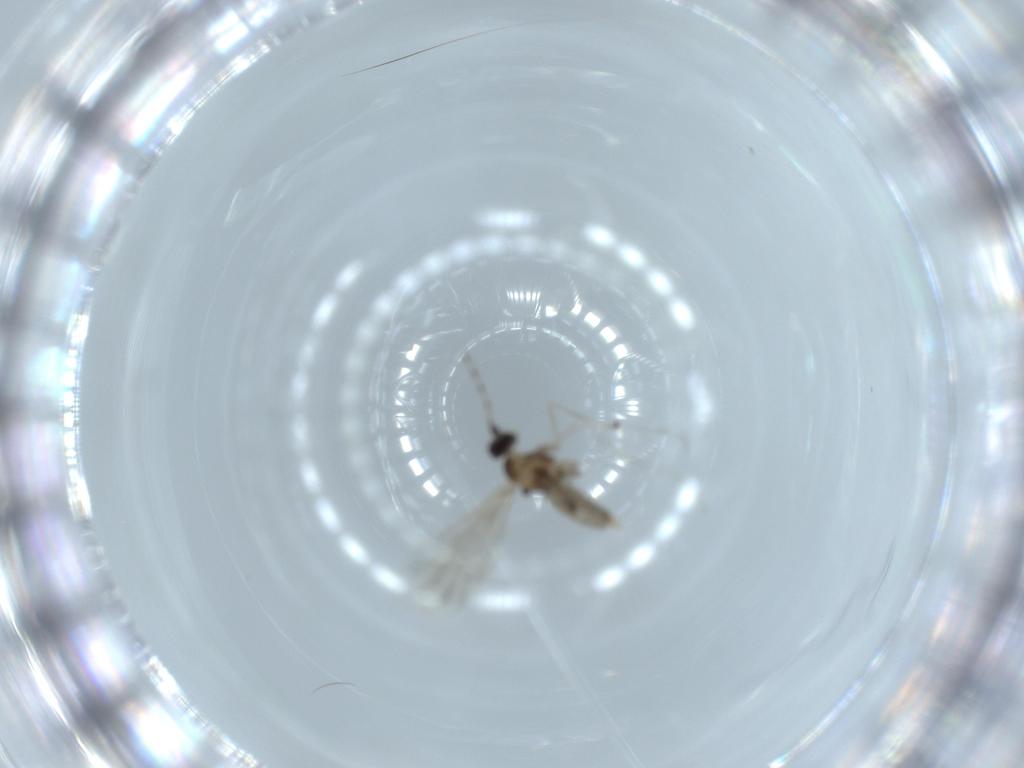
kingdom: Animalia
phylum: Arthropoda
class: Insecta
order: Diptera
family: Cecidomyiidae
